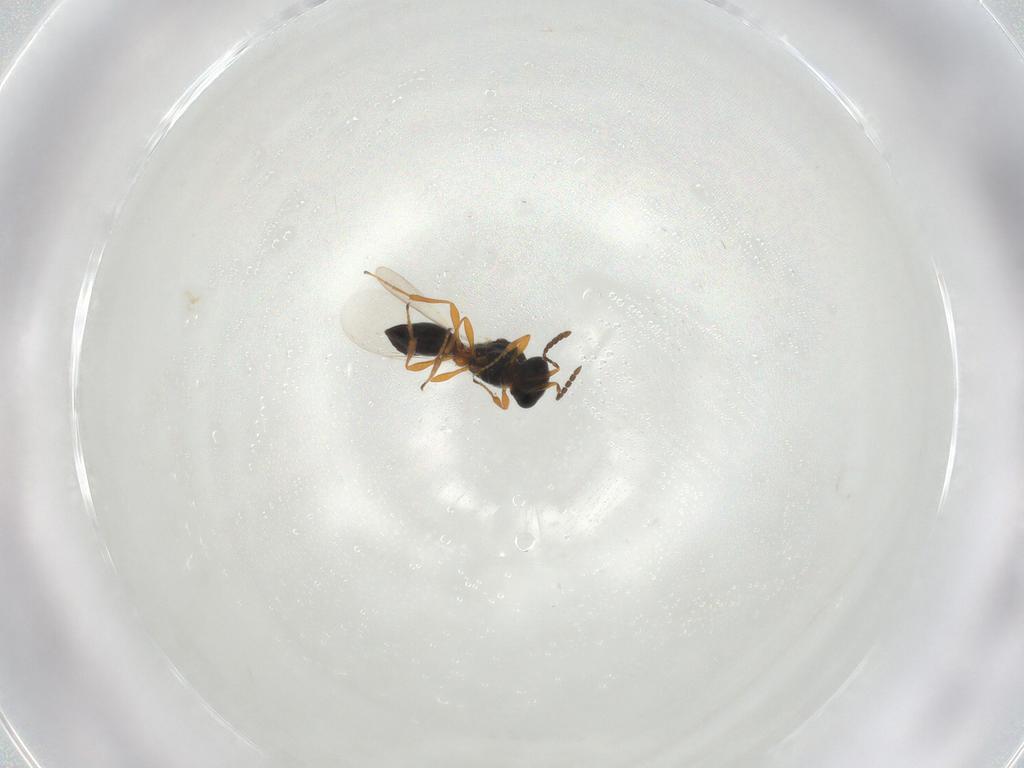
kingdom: Animalia
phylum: Arthropoda
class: Insecta
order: Hymenoptera
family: Platygastridae
